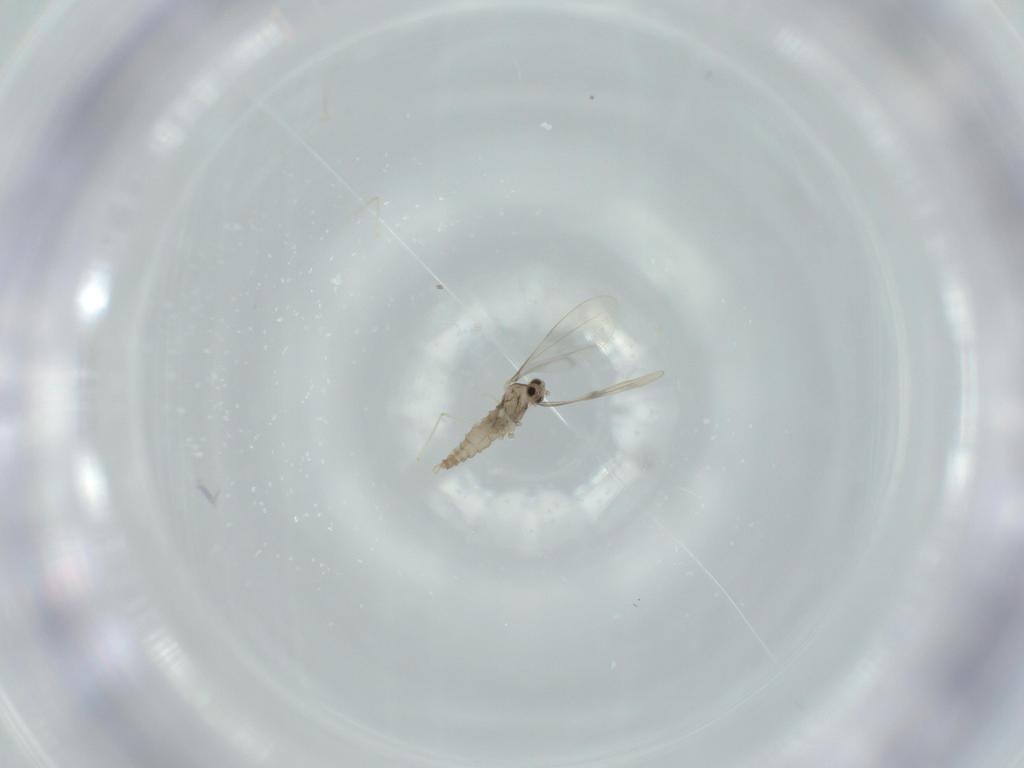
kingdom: Animalia
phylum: Arthropoda
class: Insecta
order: Diptera
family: Cecidomyiidae
